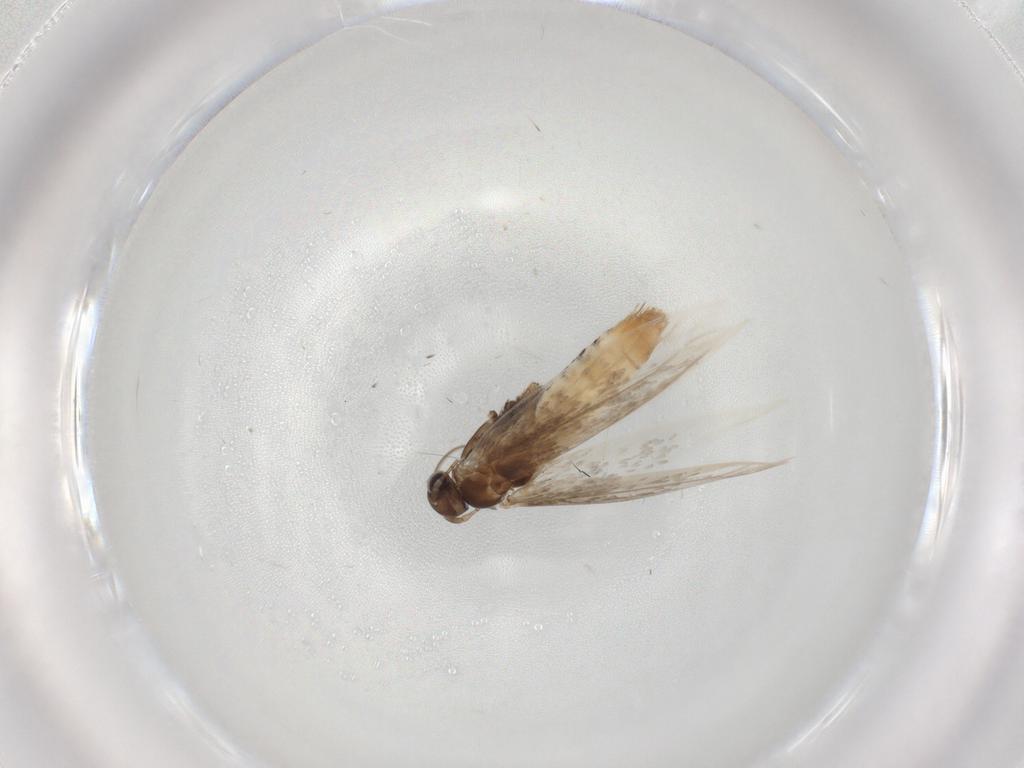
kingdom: Animalia
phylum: Arthropoda
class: Insecta
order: Lepidoptera
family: Gracillariidae
